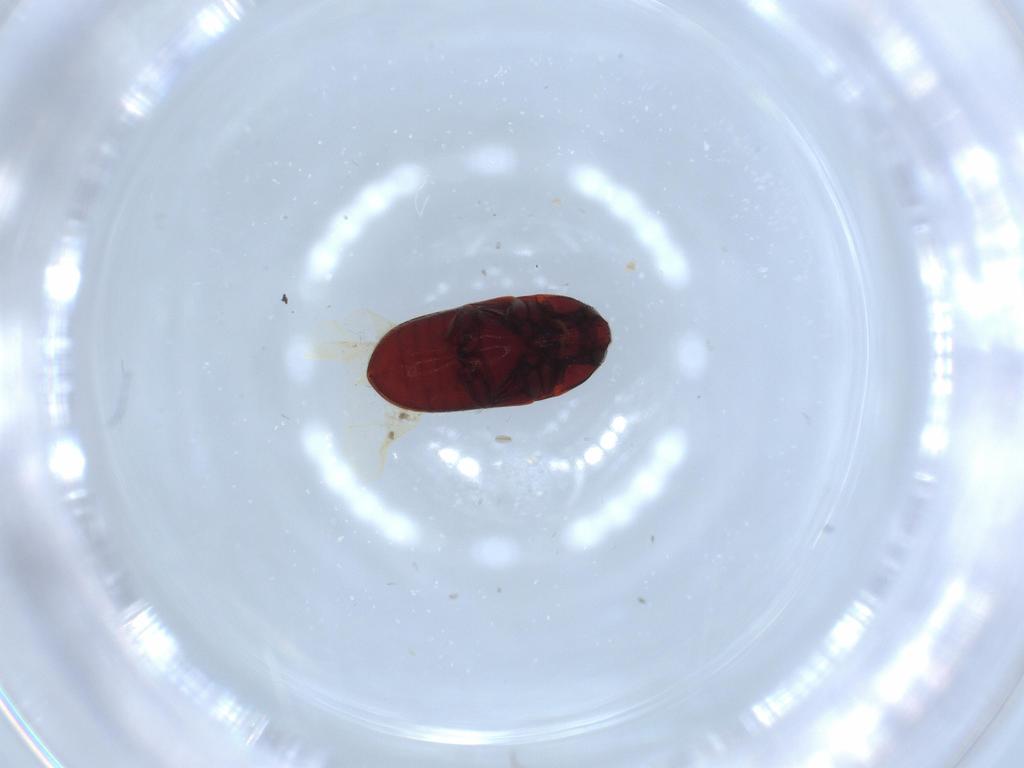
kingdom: Animalia
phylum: Arthropoda
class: Insecta
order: Coleoptera
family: Throscidae
